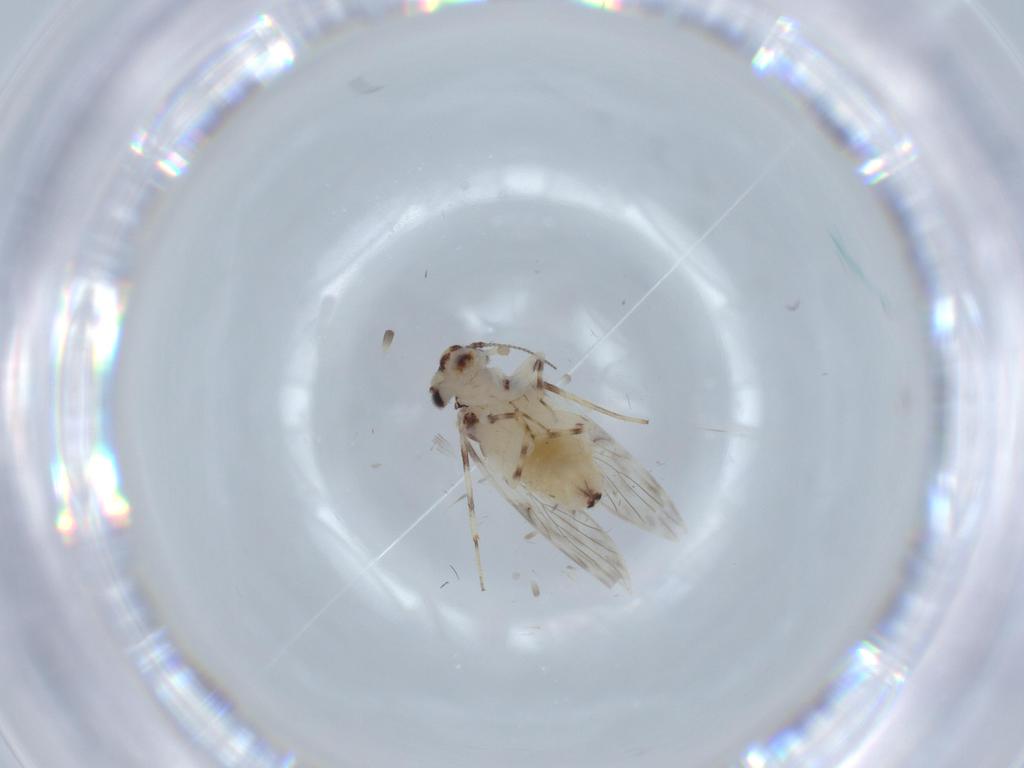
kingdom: Animalia
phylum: Arthropoda
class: Insecta
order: Psocodea
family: Lepidopsocidae
